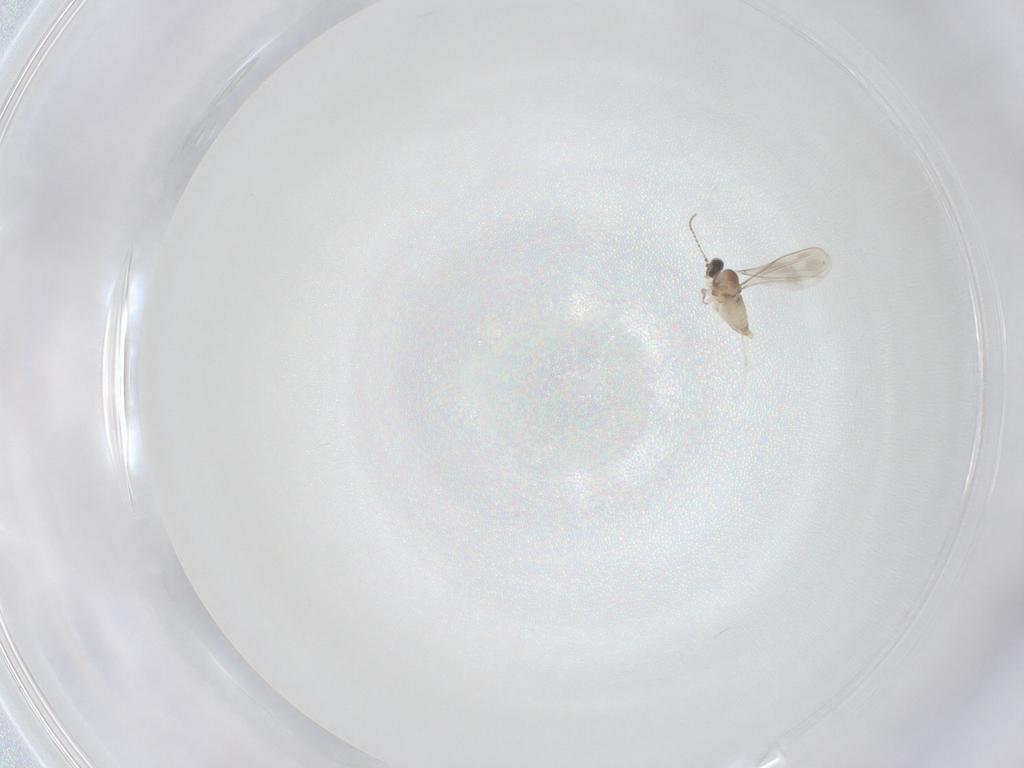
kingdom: Animalia
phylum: Arthropoda
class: Insecta
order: Diptera
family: Cecidomyiidae
